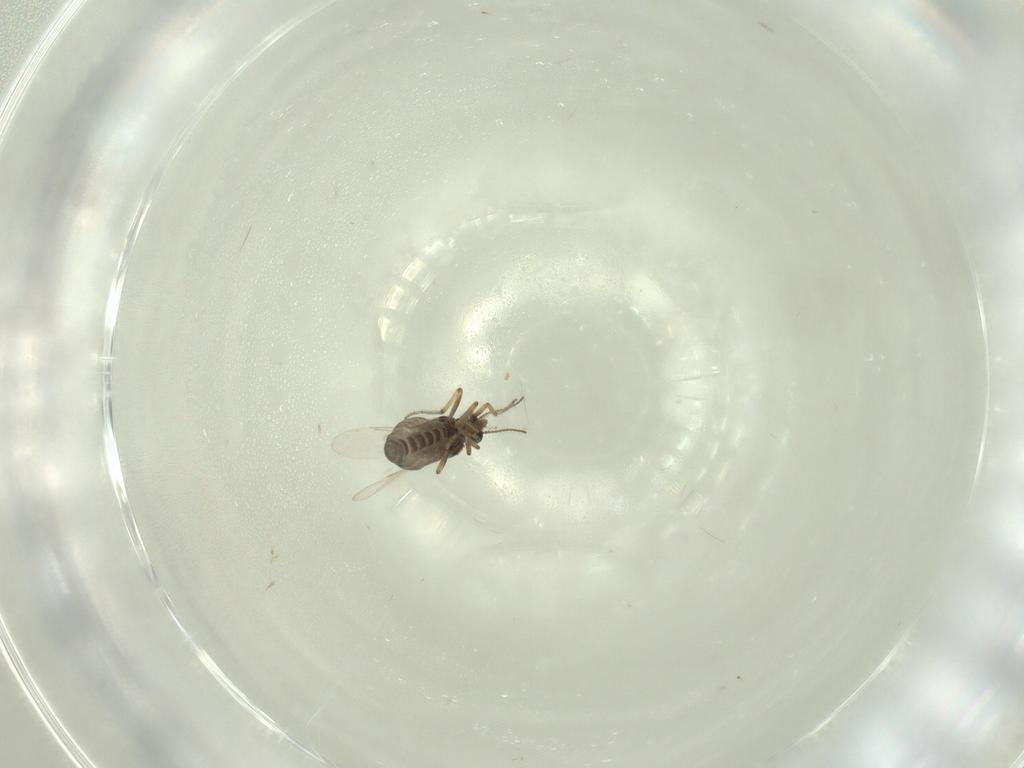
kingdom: Animalia
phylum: Arthropoda
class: Insecta
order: Diptera
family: Ceratopogonidae
